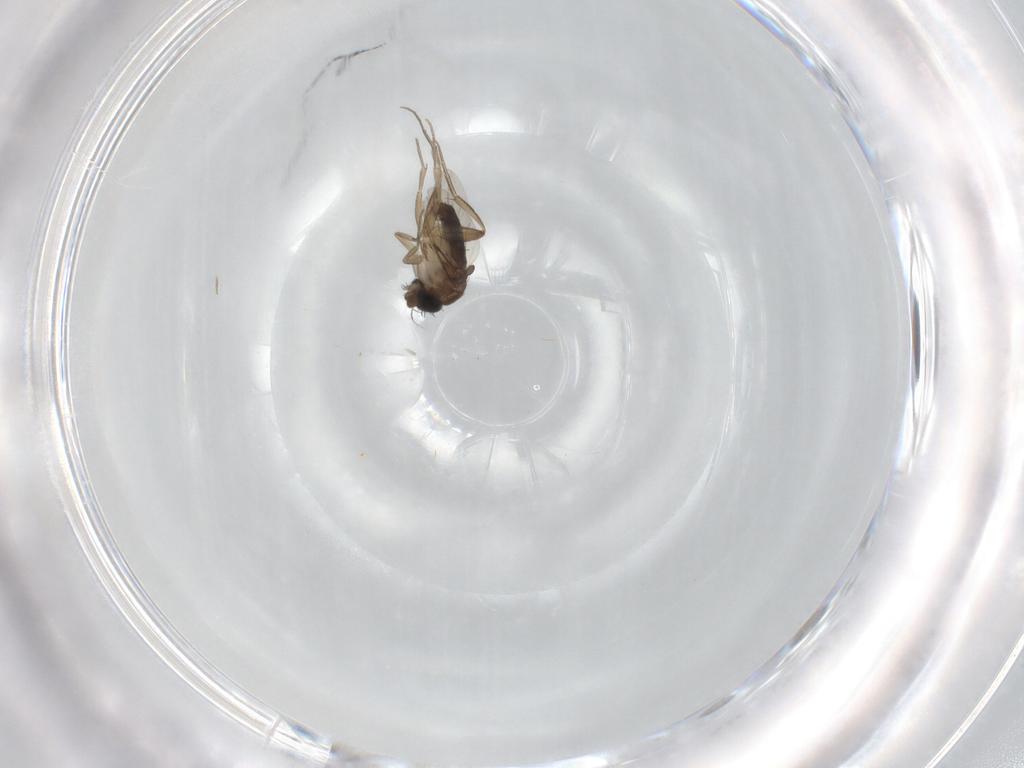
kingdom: Animalia
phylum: Arthropoda
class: Insecta
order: Diptera
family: Phoridae
